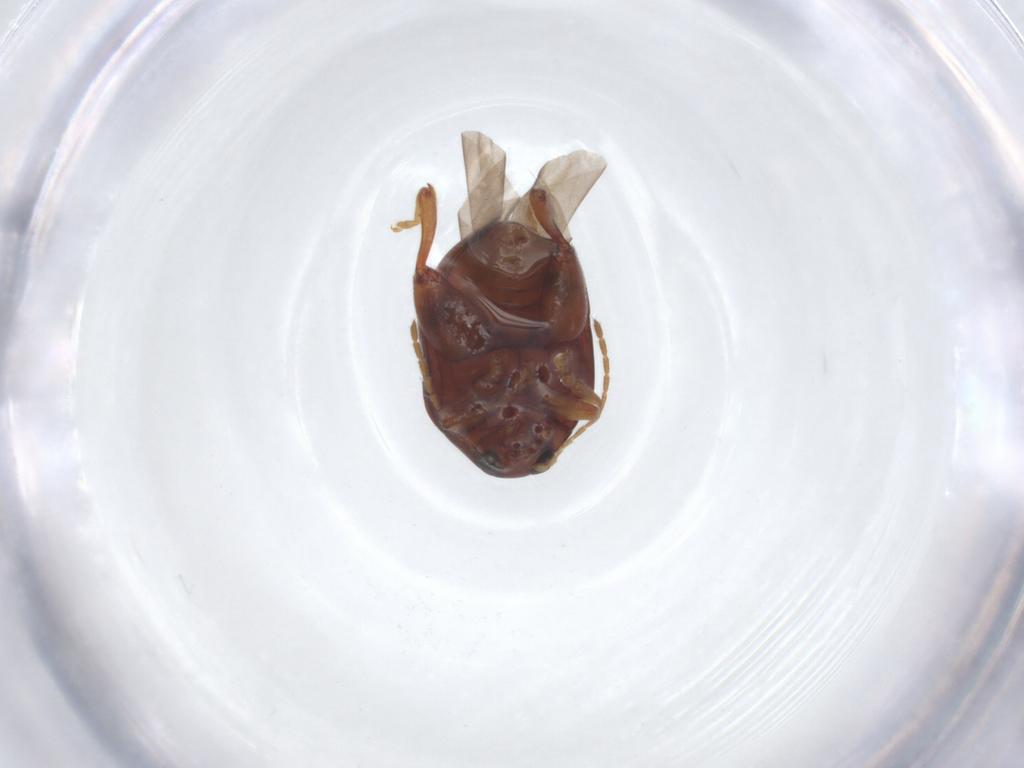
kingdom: Animalia
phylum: Arthropoda
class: Insecta
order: Coleoptera
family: Chrysomelidae
